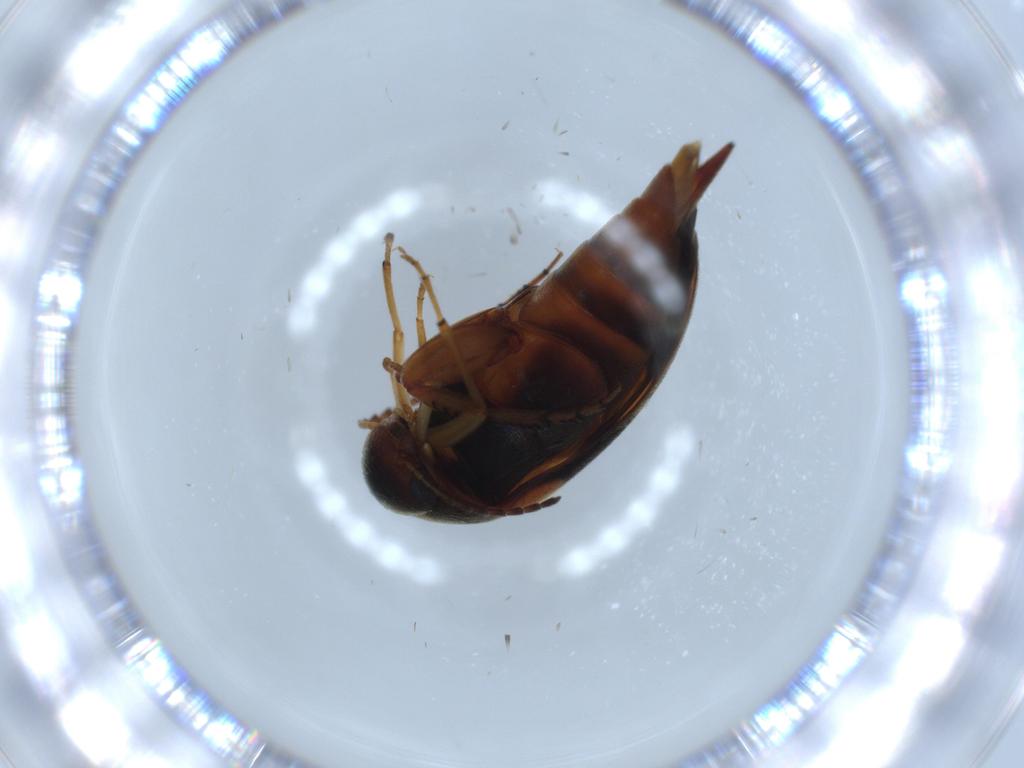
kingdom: Animalia
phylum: Arthropoda
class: Insecta
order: Coleoptera
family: Mordellidae
